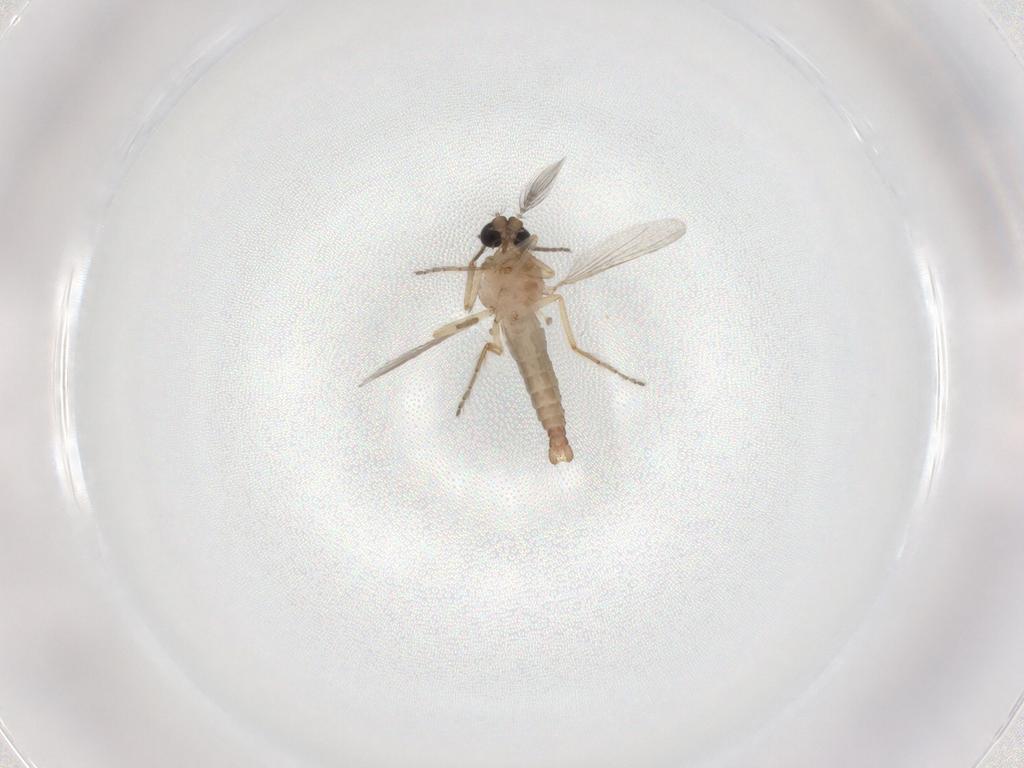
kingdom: Animalia
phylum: Arthropoda
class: Insecta
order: Diptera
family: Ceratopogonidae
